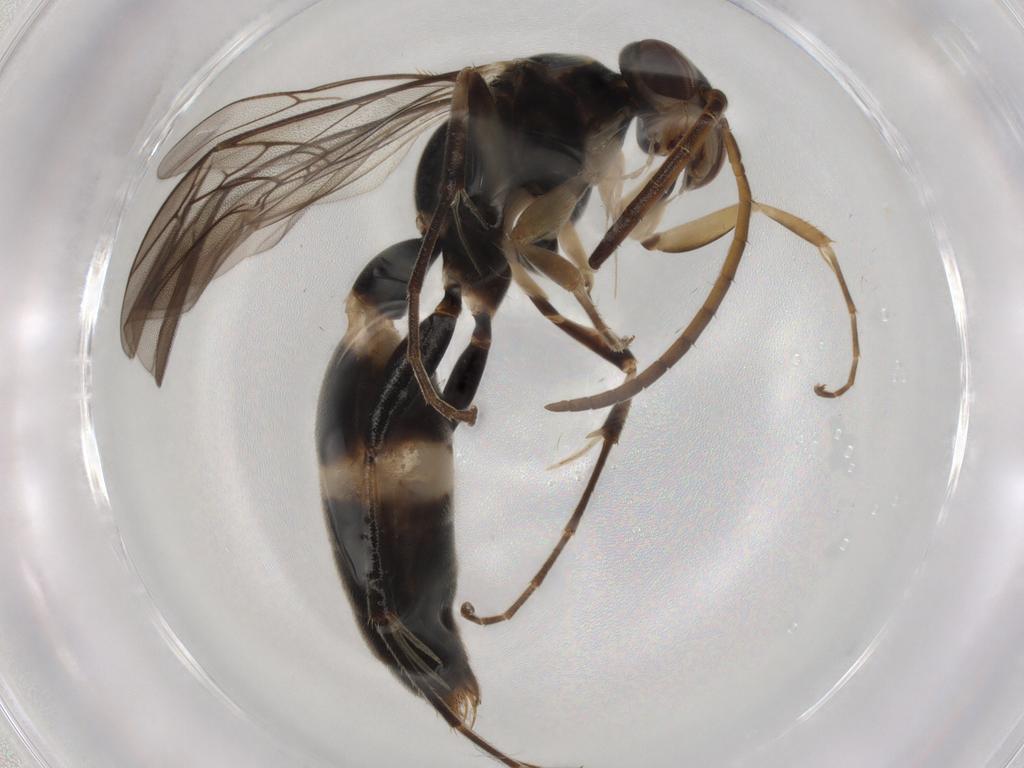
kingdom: Animalia
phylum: Arthropoda
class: Insecta
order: Hymenoptera
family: Rhopalosomatidae
